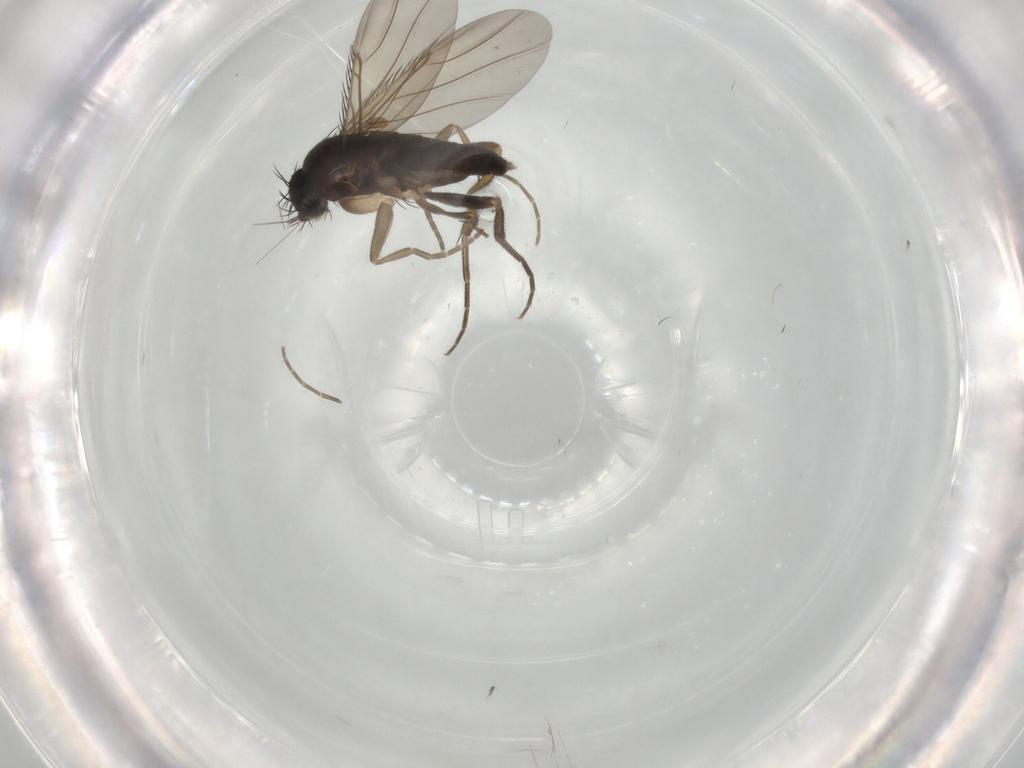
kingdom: Animalia
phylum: Arthropoda
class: Insecta
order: Diptera
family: Phoridae
